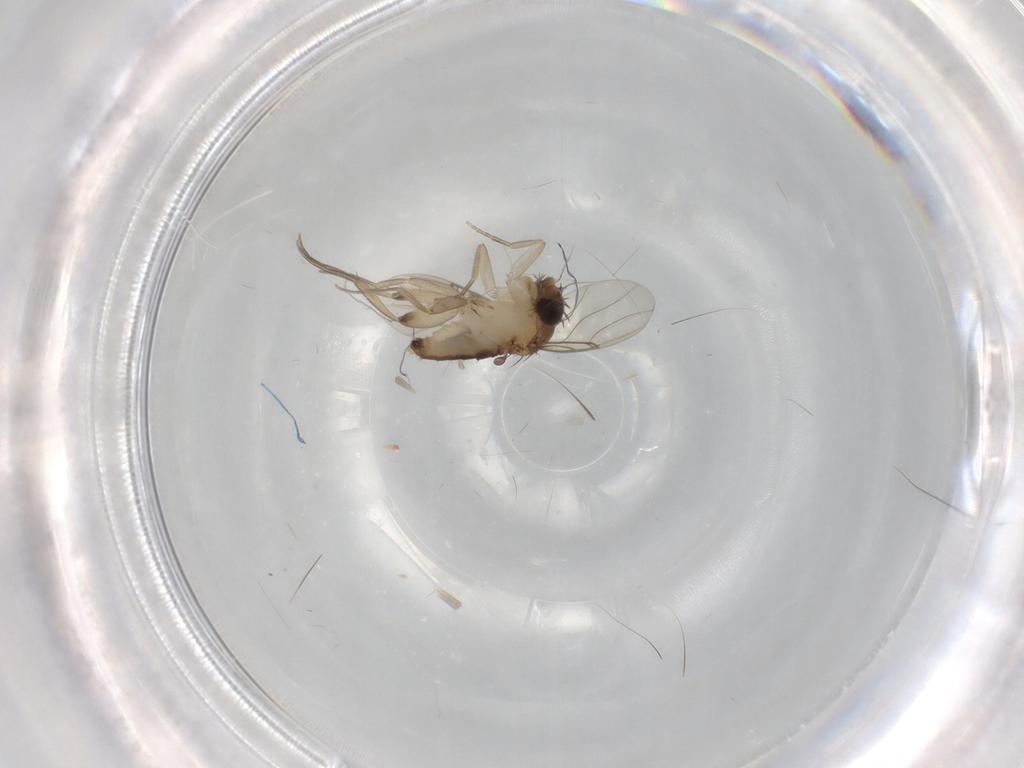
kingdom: Animalia
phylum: Arthropoda
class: Insecta
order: Diptera
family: Phoridae
